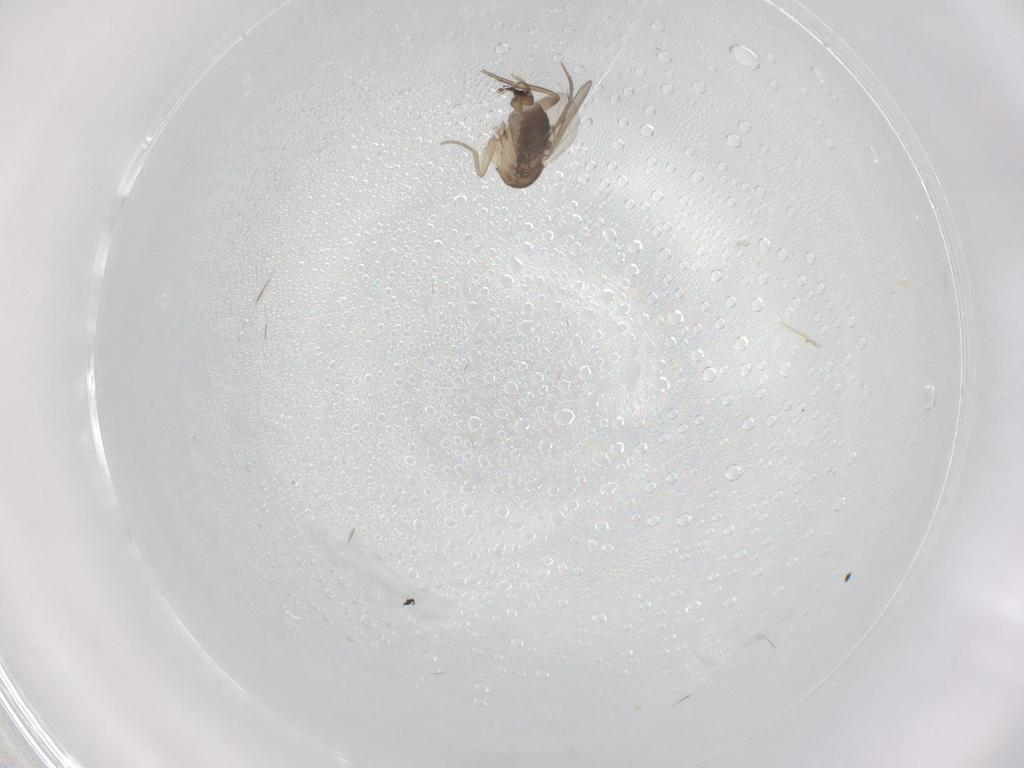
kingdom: Animalia
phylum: Arthropoda
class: Insecta
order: Diptera
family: Phoridae
